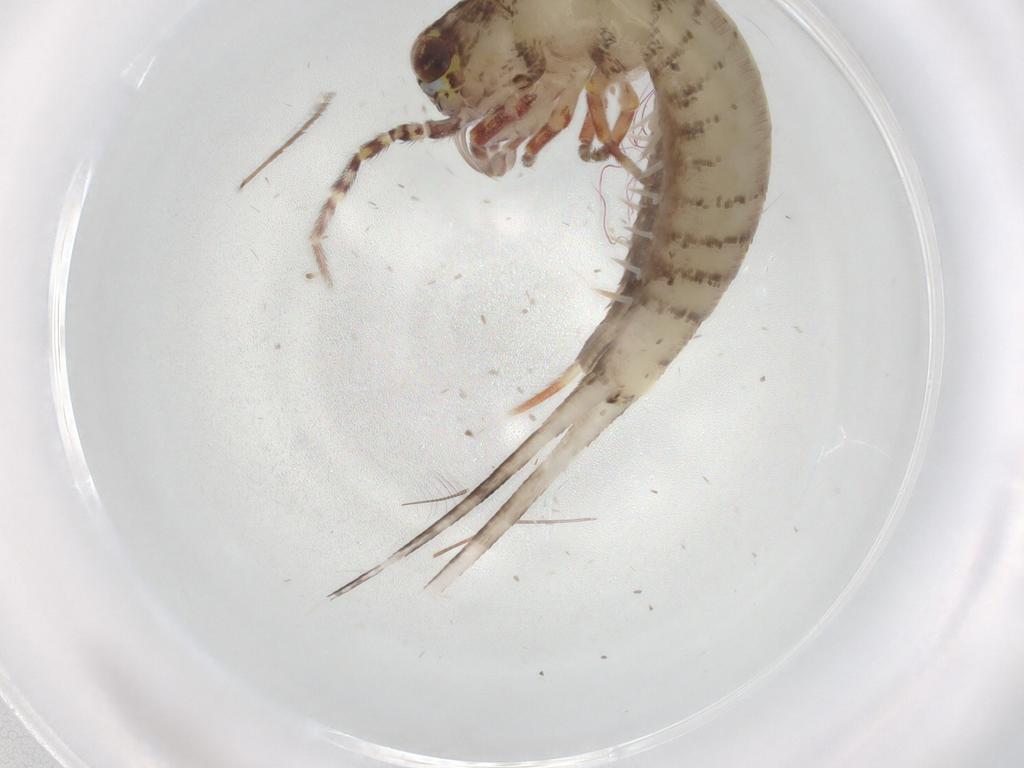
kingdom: Animalia
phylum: Arthropoda
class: Insecta
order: Archaeognatha
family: Machilidae
